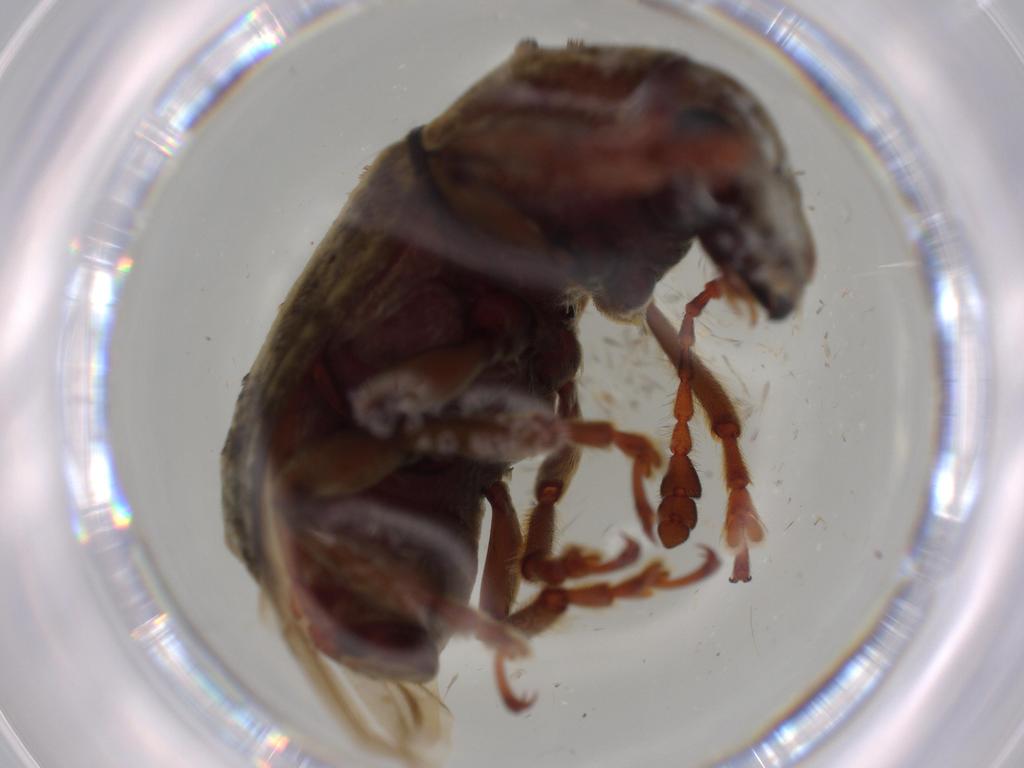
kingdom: Animalia
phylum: Arthropoda
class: Insecta
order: Coleoptera
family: Anthribidae
